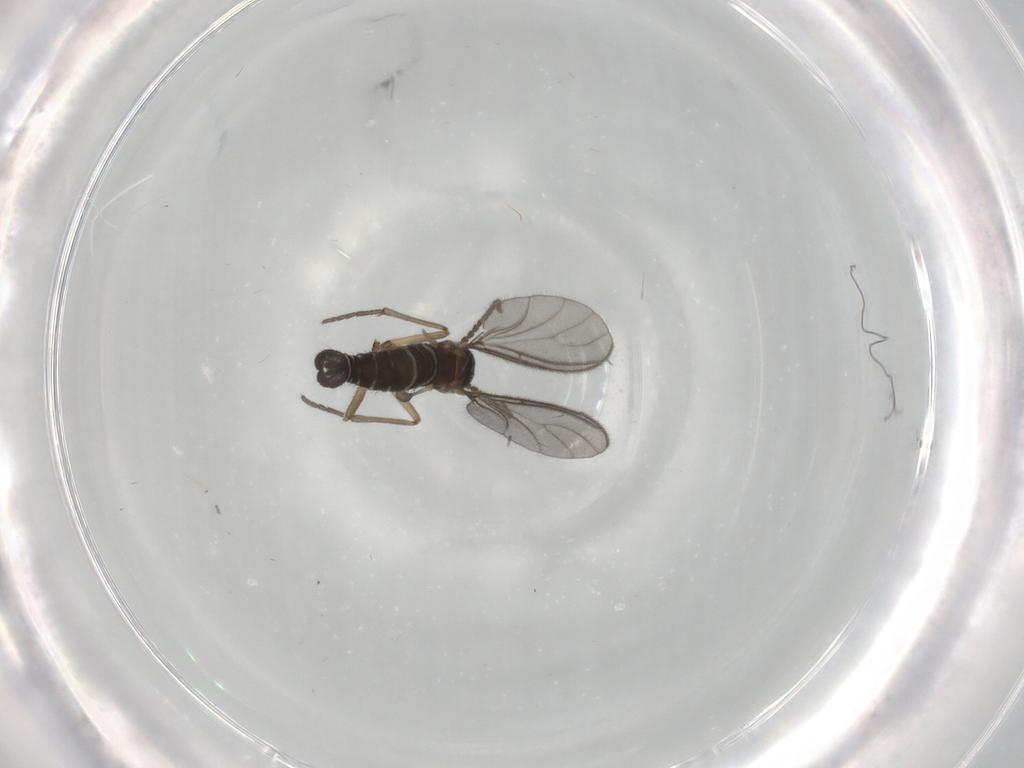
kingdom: Animalia
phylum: Arthropoda
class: Insecta
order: Diptera
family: Sciaridae
